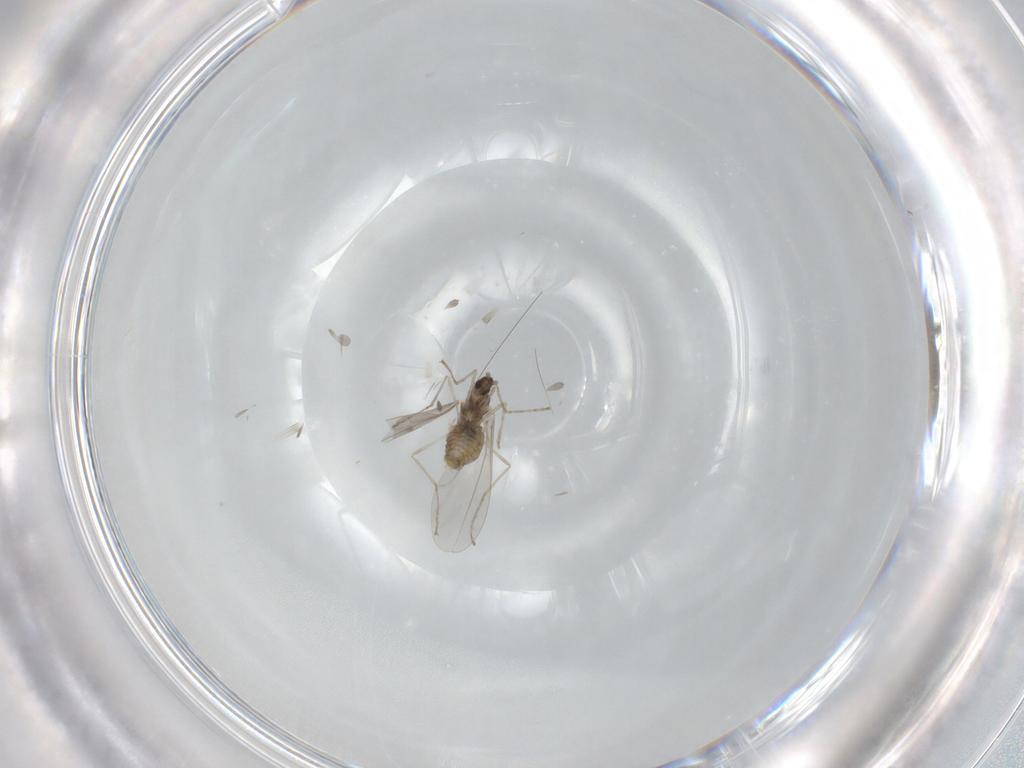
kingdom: Animalia
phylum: Arthropoda
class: Insecta
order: Diptera
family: Cecidomyiidae
